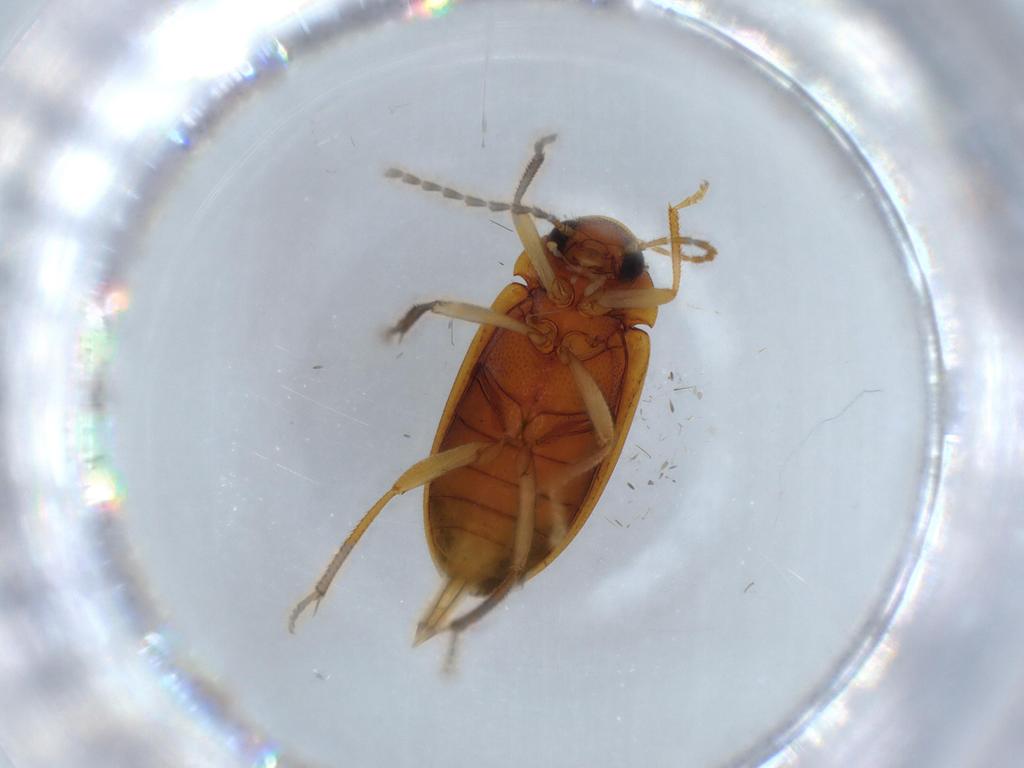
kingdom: Animalia
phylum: Arthropoda
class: Insecta
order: Coleoptera
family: Ptilodactylidae
